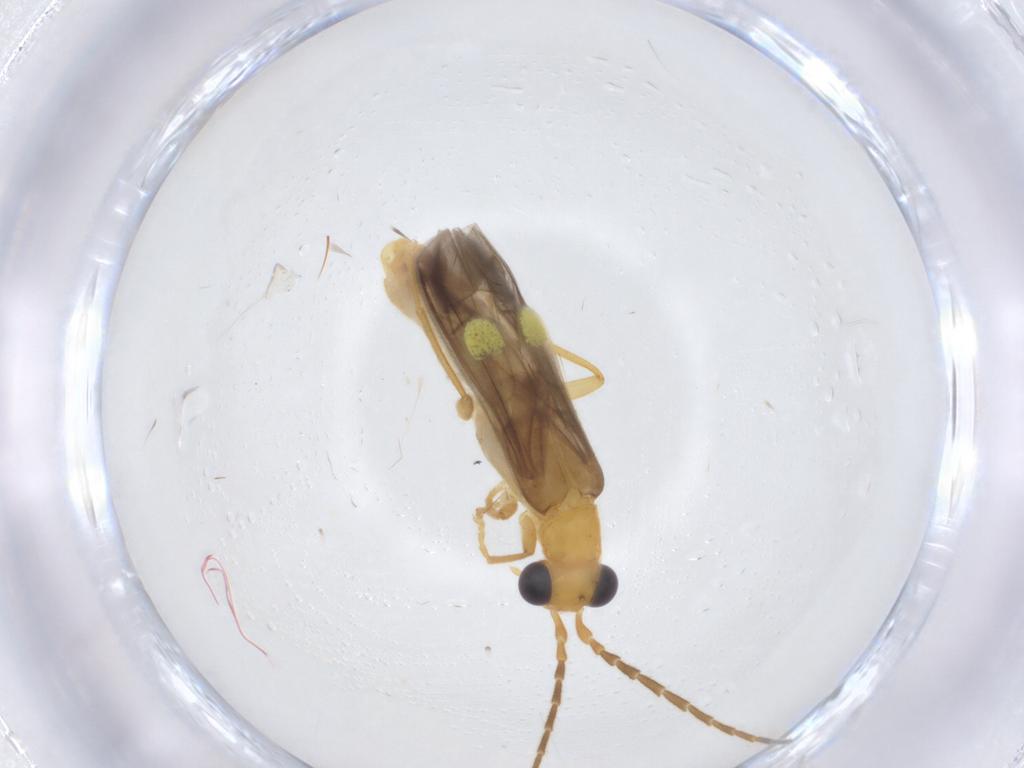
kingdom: Animalia
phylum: Arthropoda
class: Insecta
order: Coleoptera
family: Cantharidae
